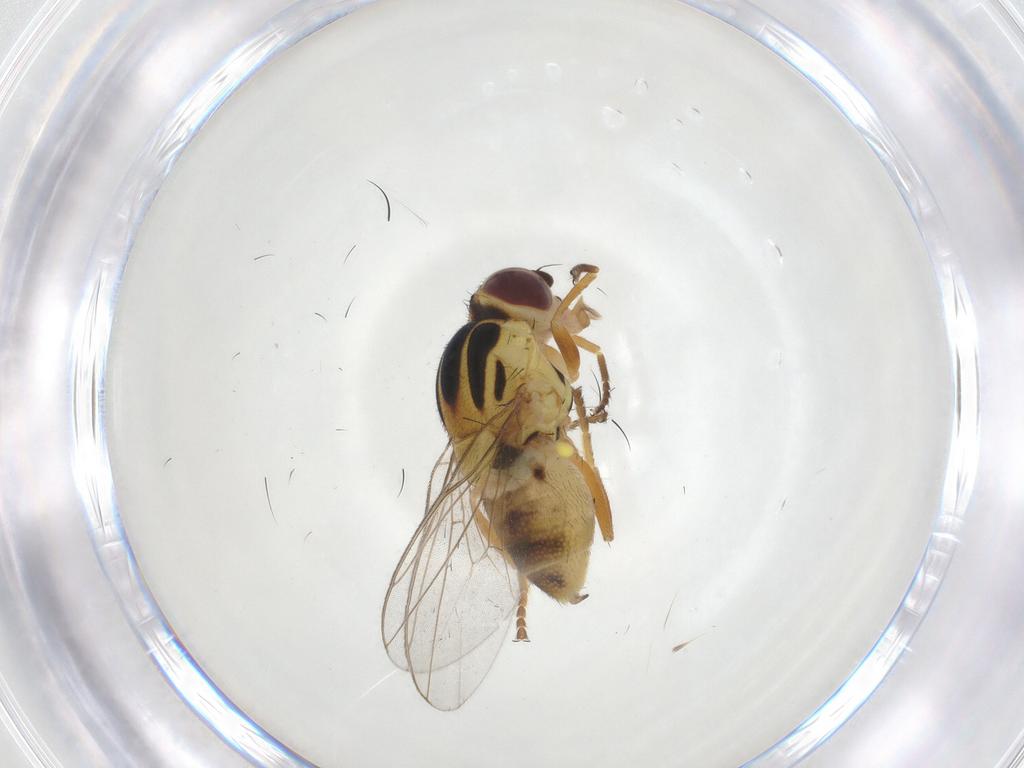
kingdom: Animalia
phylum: Arthropoda
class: Insecta
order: Diptera
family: Chloropidae
